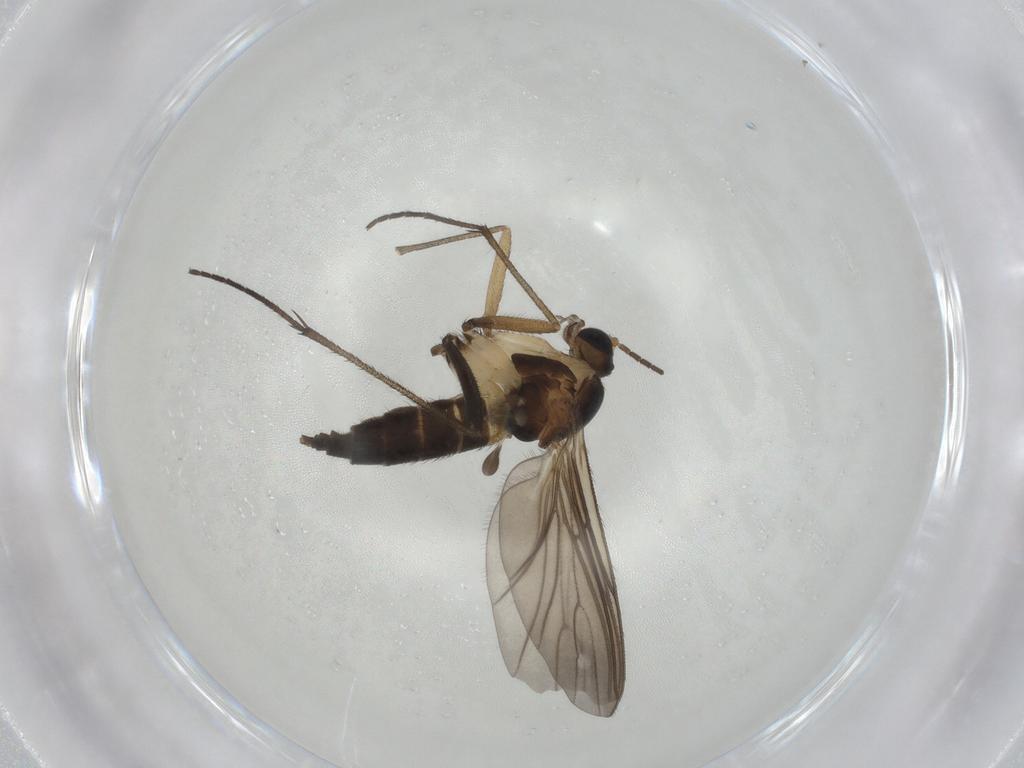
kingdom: Animalia
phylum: Arthropoda
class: Insecta
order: Diptera
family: Sciaridae
